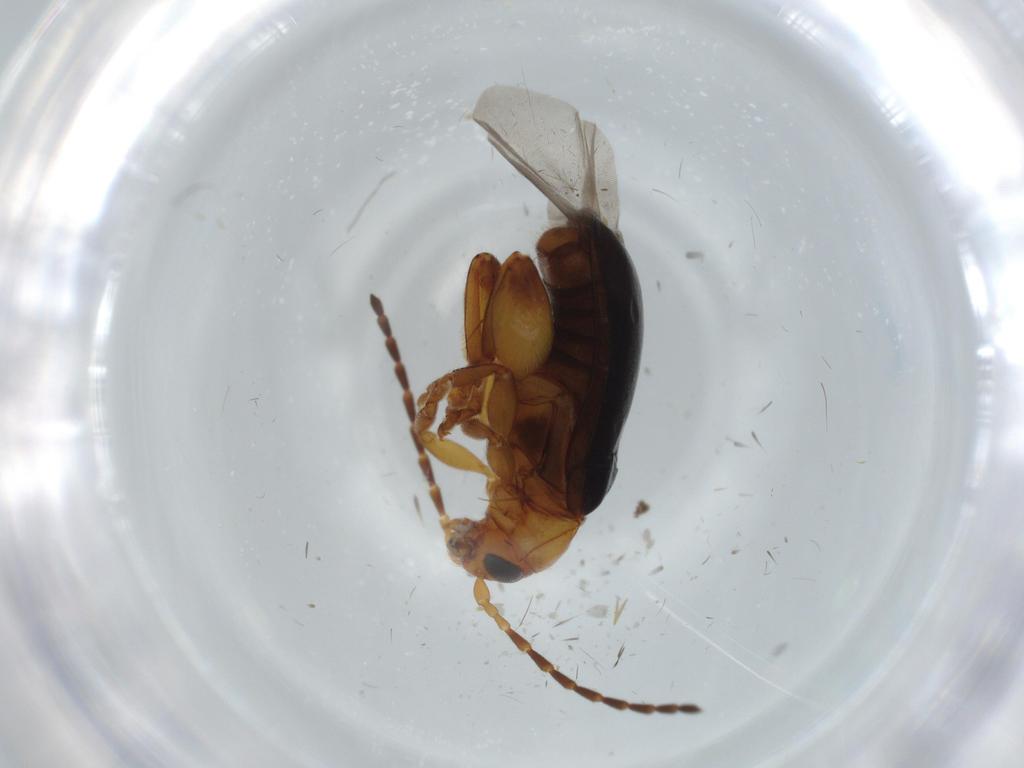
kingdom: Animalia
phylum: Arthropoda
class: Insecta
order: Coleoptera
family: Chrysomelidae
